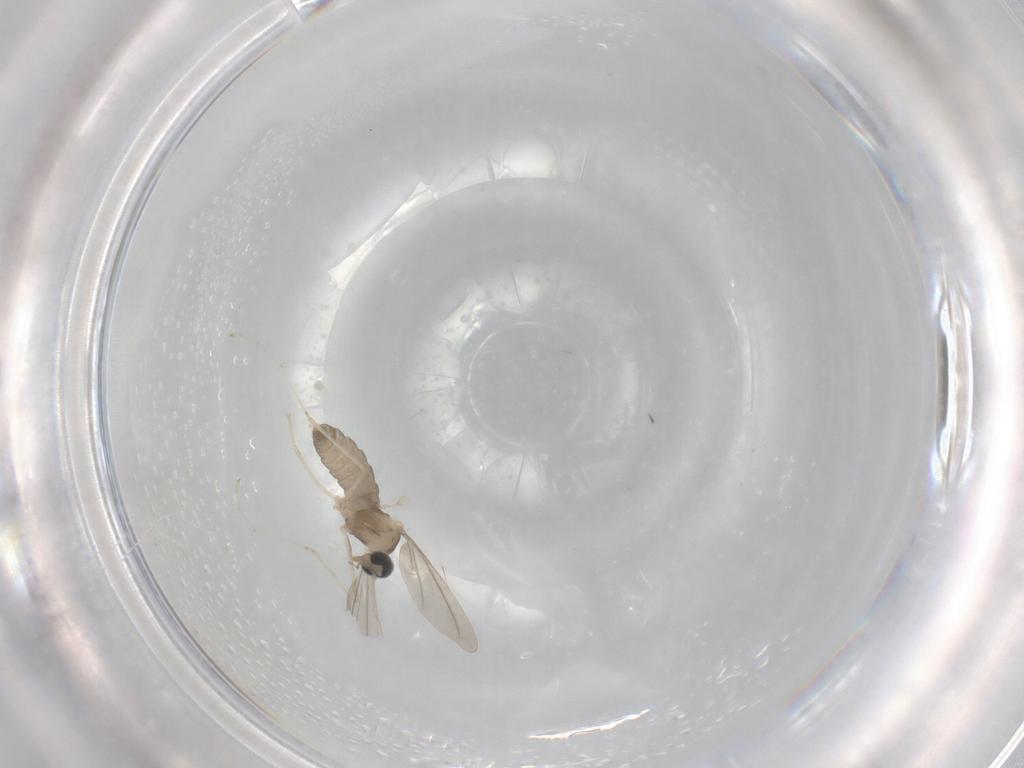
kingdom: Animalia
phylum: Arthropoda
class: Insecta
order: Diptera
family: Cecidomyiidae
